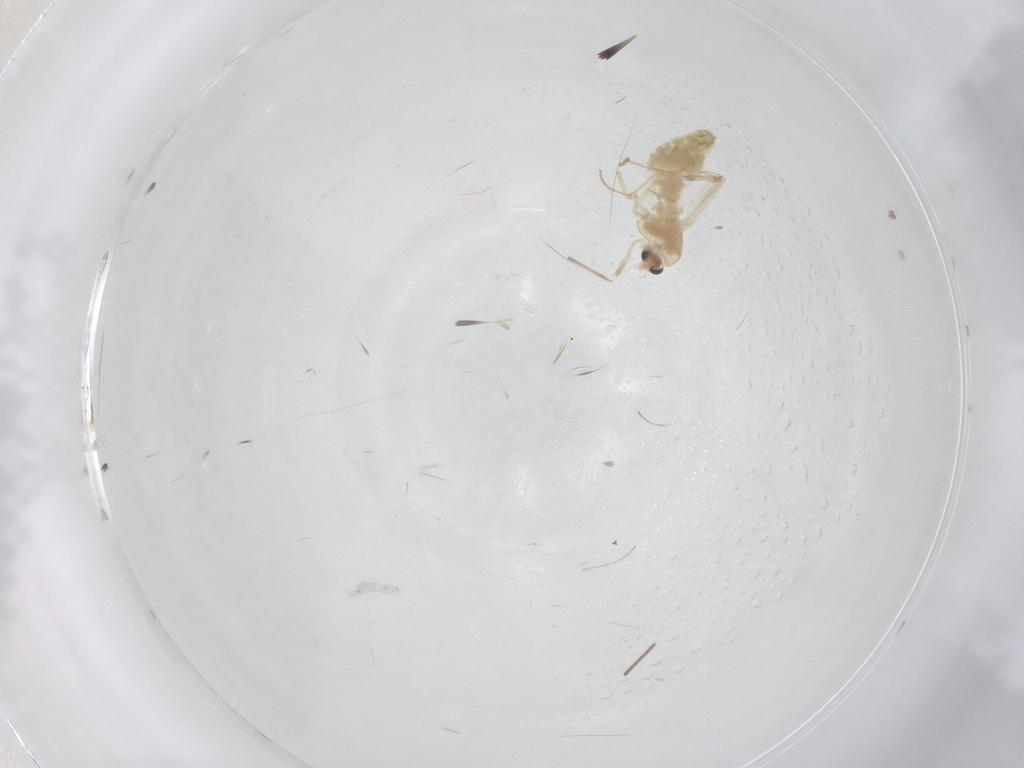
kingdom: Animalia
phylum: Arthropoda
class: Insecta
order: Diptera
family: Chironomidae
